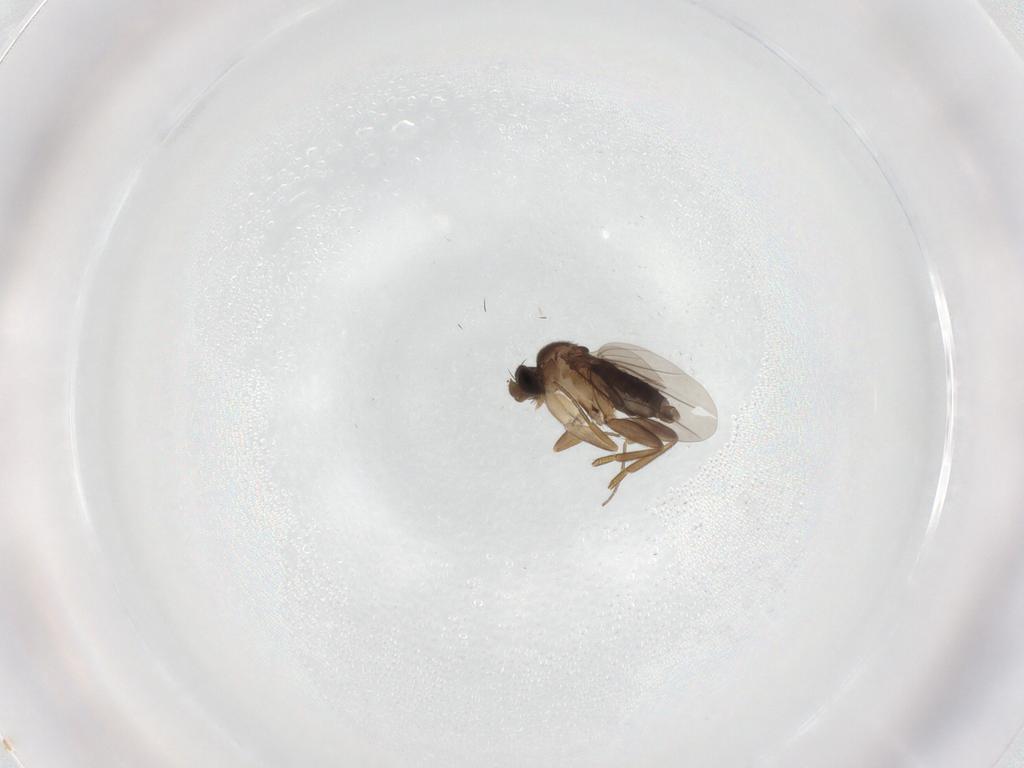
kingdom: Animalia
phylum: Arthropoda
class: Insecta
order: Diptera
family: Phoridae
